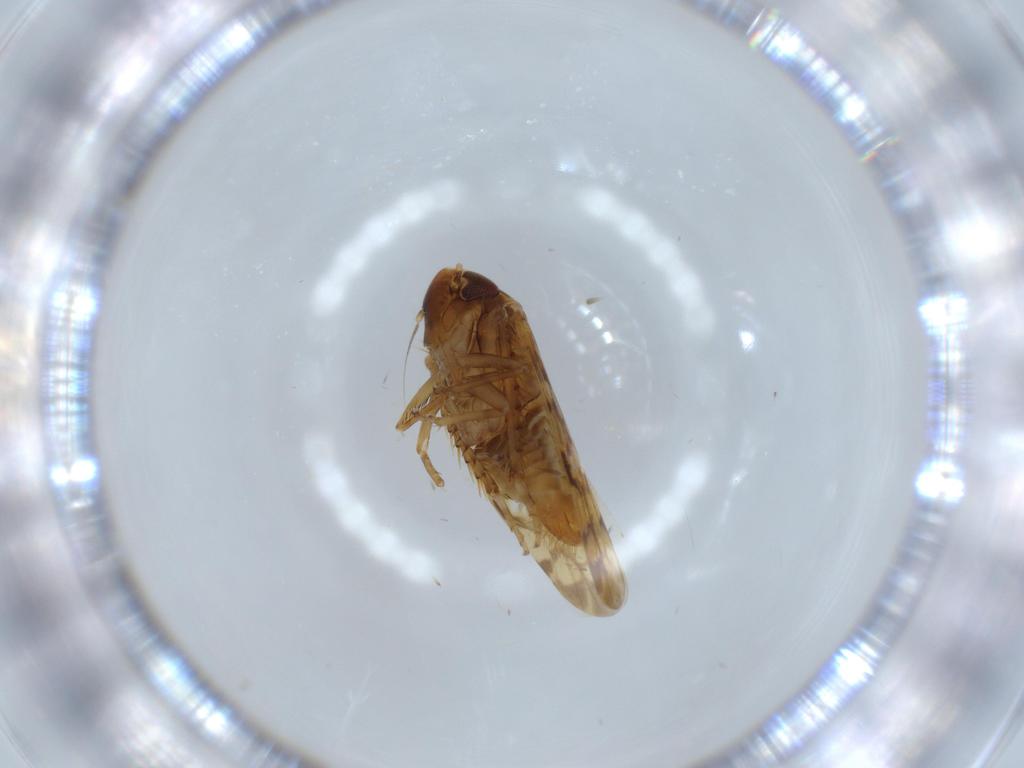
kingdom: Animalia
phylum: Arthropoda
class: Insecta
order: Hemiptera
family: Cicadellidae
